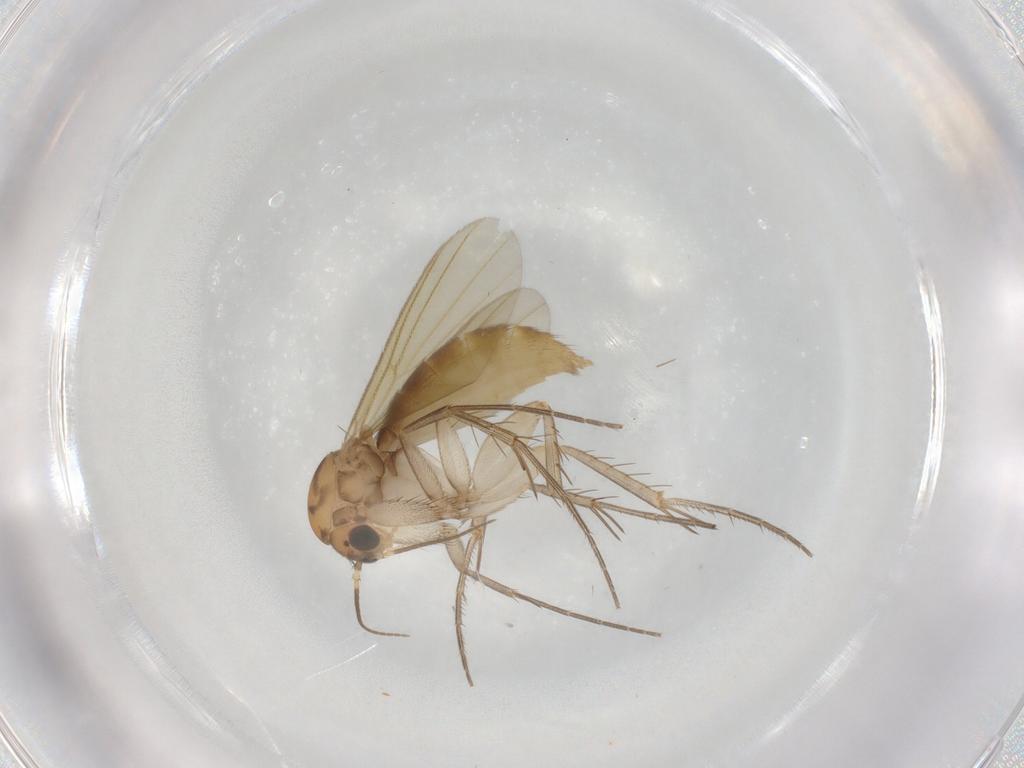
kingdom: Animalia
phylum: Arthropoda
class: Insecta
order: Diptera
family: Mycetophilidae
